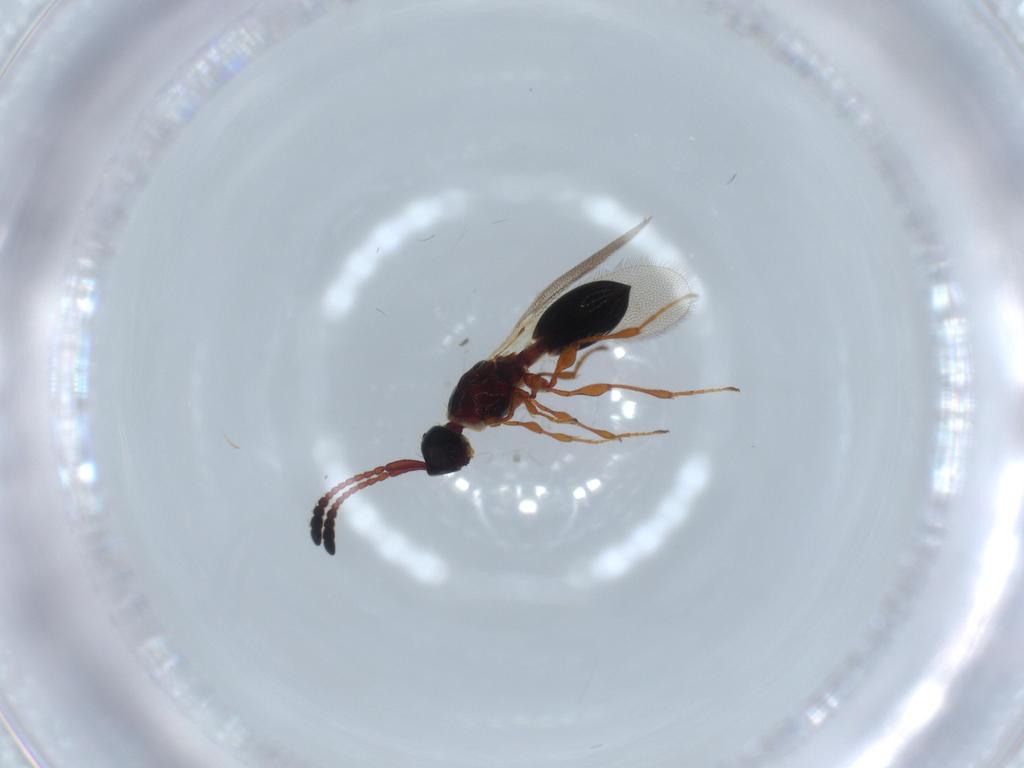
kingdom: Animalia
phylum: Arthropoda
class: Insecta
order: Hymenoptera
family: Diapriidae
